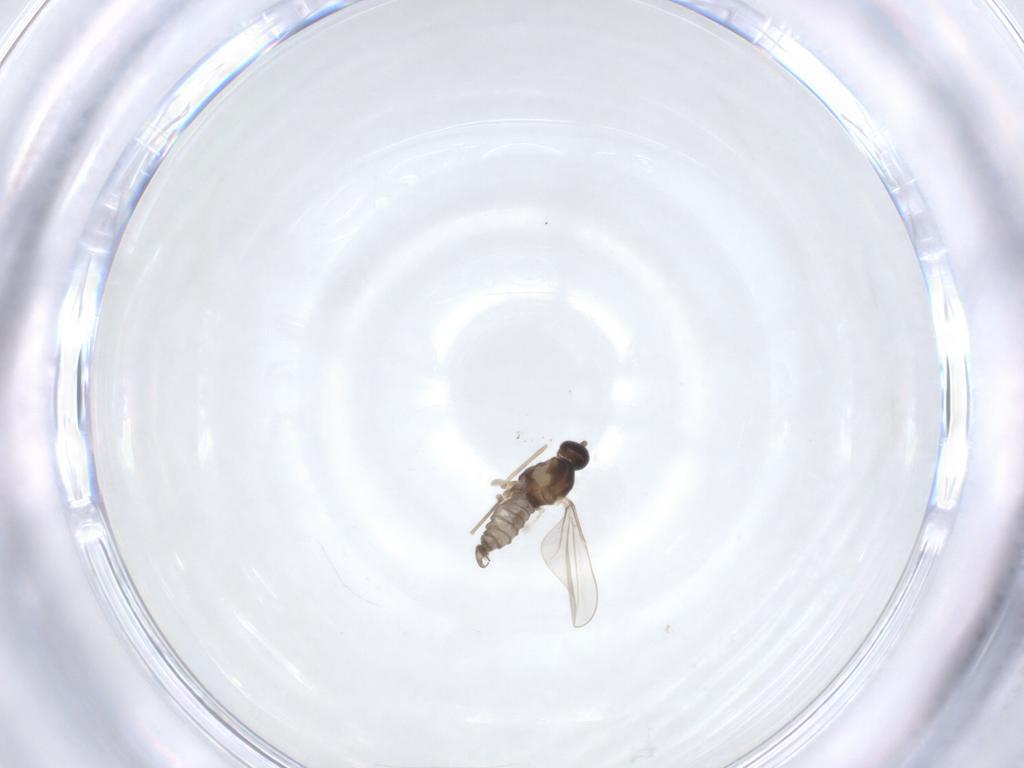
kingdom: Animalia
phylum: Arthropoda
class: Insecta
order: Diptera
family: Cecidomyiidae
